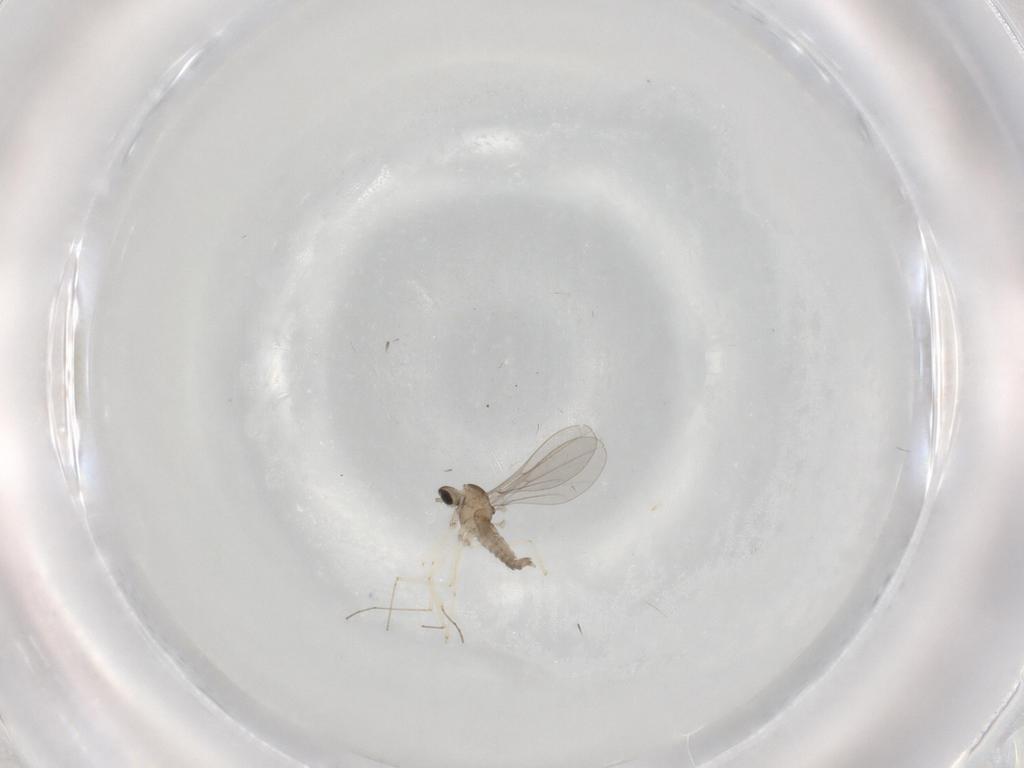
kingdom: Animalia
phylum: Arthropoda
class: Insecta
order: Diptera
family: Cecidomyiidae
